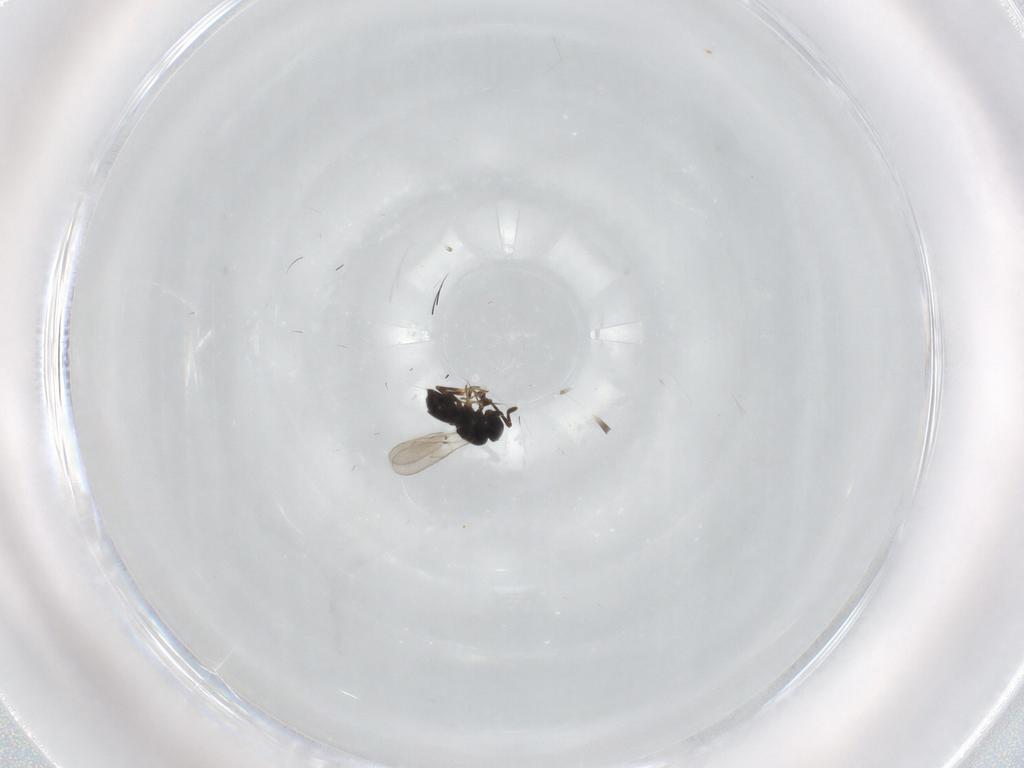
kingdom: Animalia
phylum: Arthropoda
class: Insecta
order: Hymenoptera
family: Scelionidae
